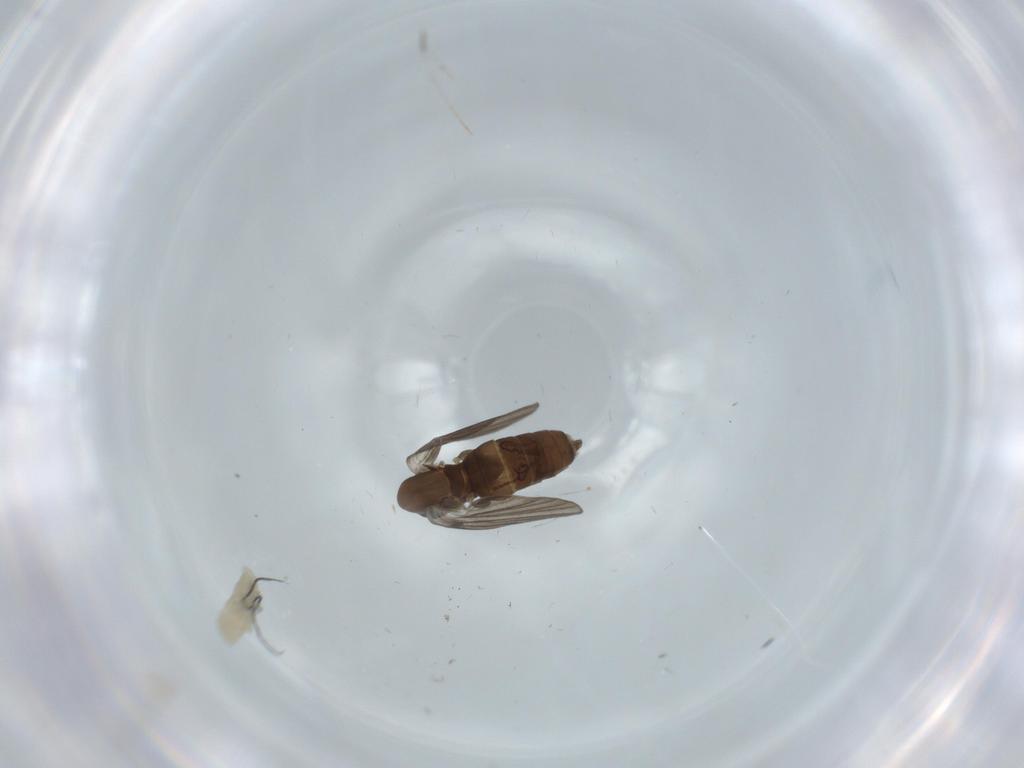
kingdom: Animalia
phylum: Arthropoda
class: Insecta
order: Diptera
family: Psychodidae
